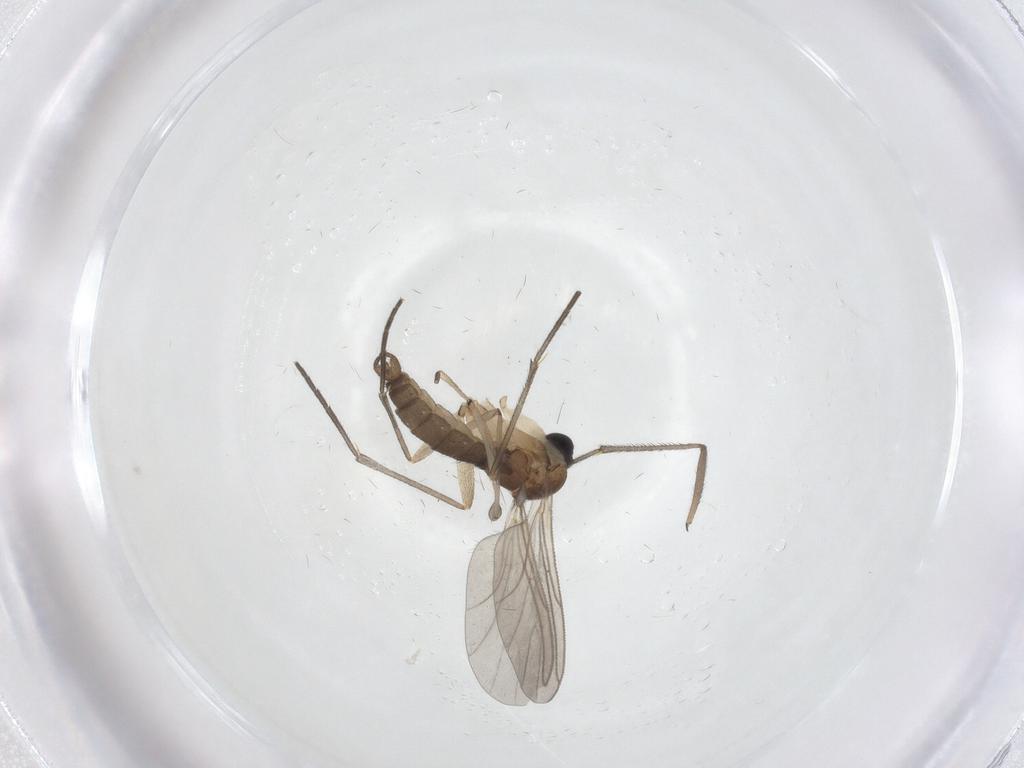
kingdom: Animalia
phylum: Arthropoda
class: Insecta
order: Diptera
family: Sciaridae
